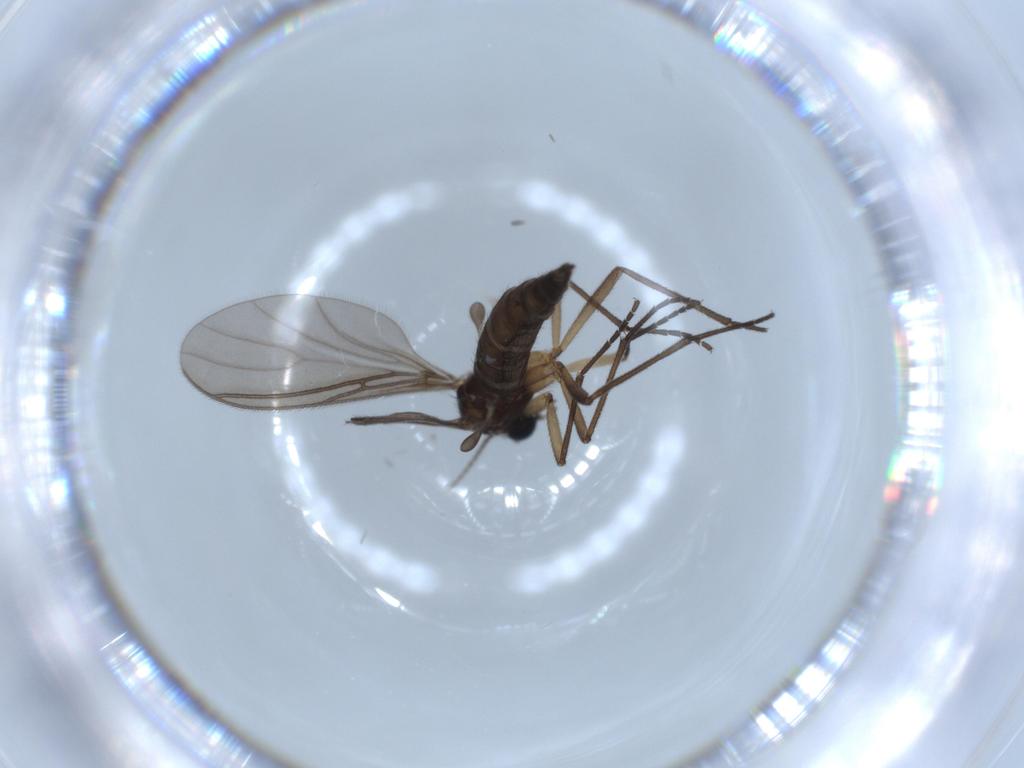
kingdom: Animalia
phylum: Arthropoda
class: Insecta
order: Diptera
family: Sciaridae
